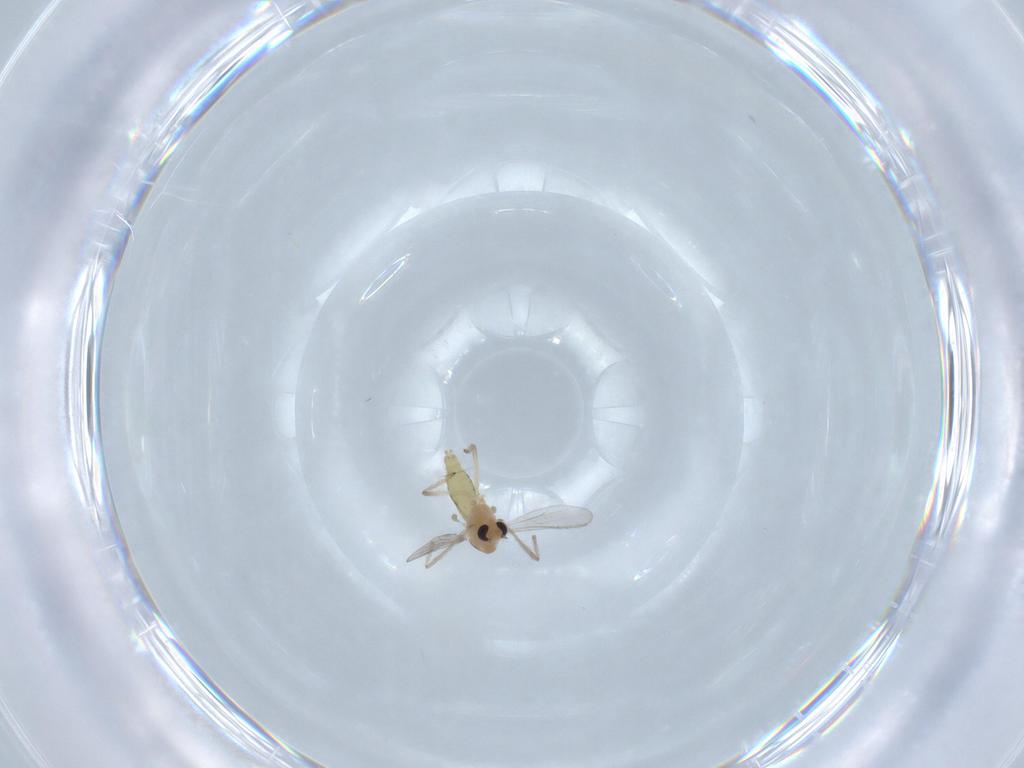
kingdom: Animalia
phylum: Arthropoda
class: Insecta
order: Diptera
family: Chironomidae
